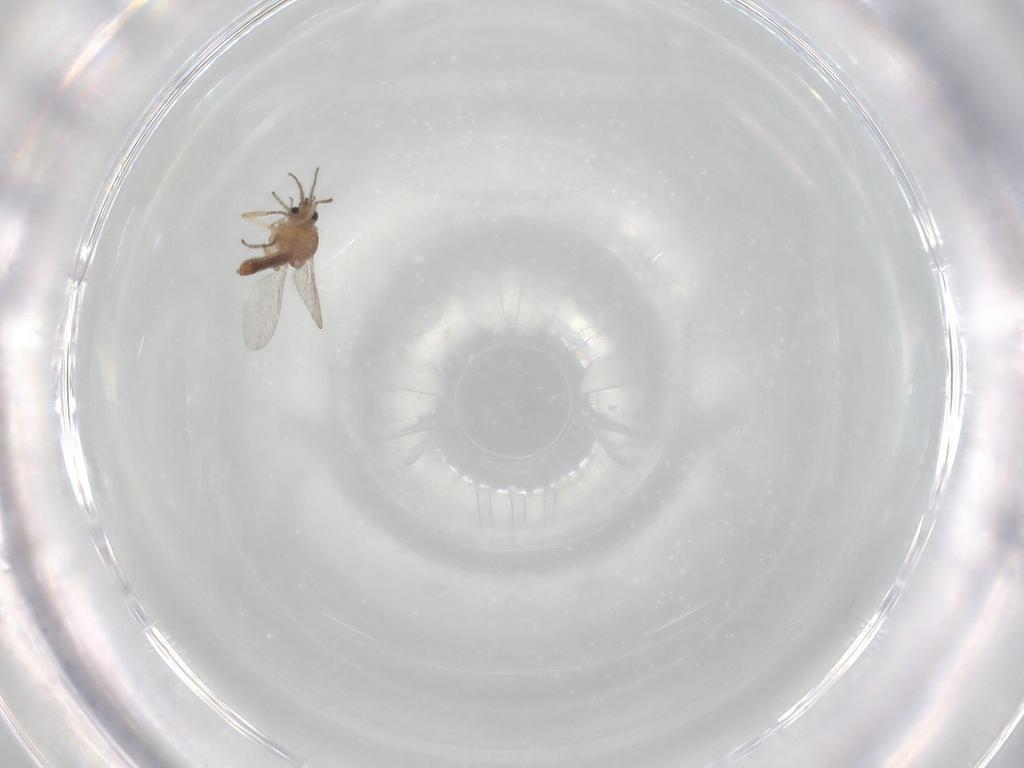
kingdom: Animalia
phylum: Arthropoda
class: Insecta
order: Diptera
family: Ceratopogonidae
